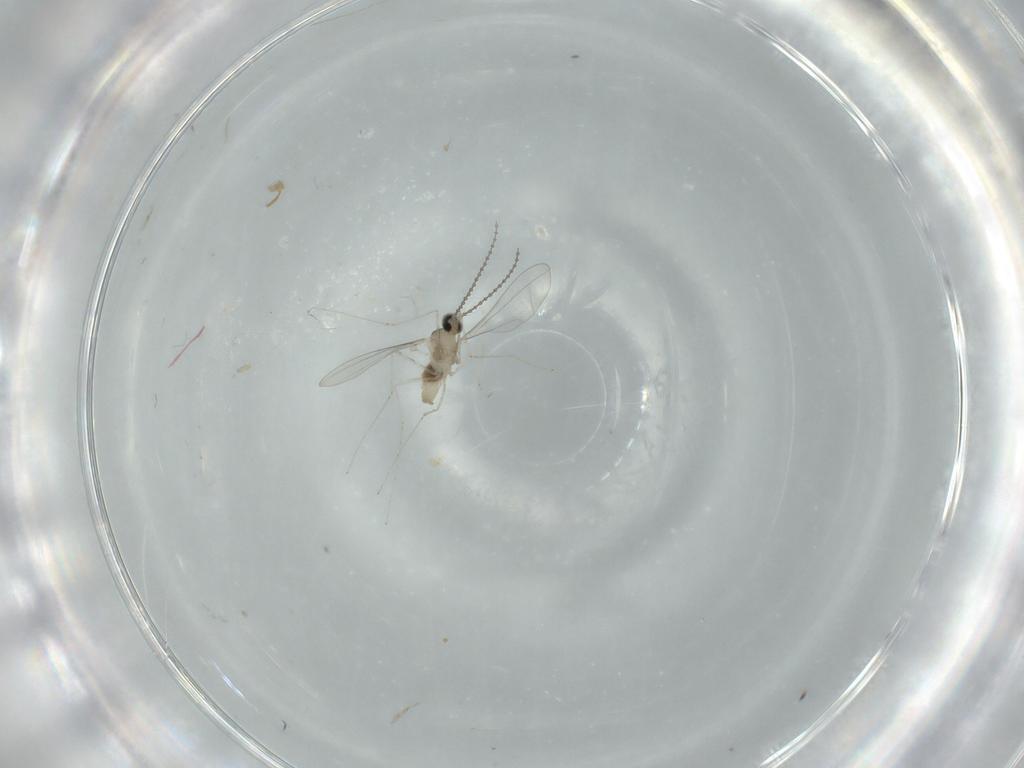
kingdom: Animalia
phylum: Arthropoda
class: Insecta
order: Diptera
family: Cecidomyiidae
